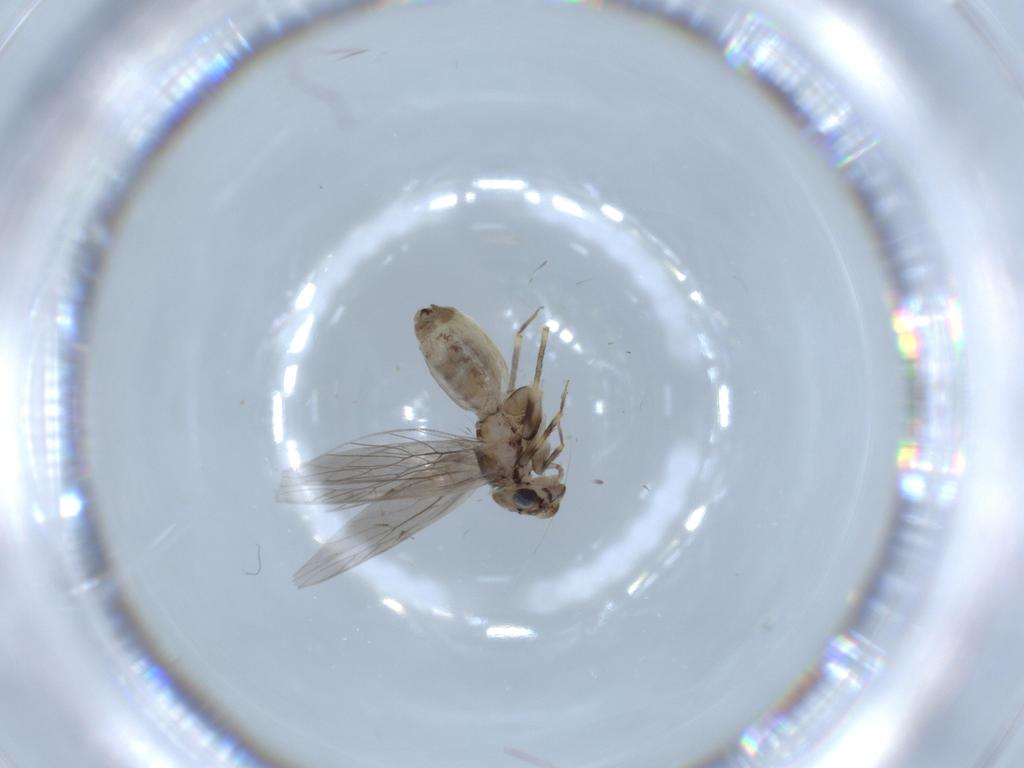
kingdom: Animalia
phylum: Arthropoda
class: Insecta
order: Psocodea
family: Lepidopsocidae
